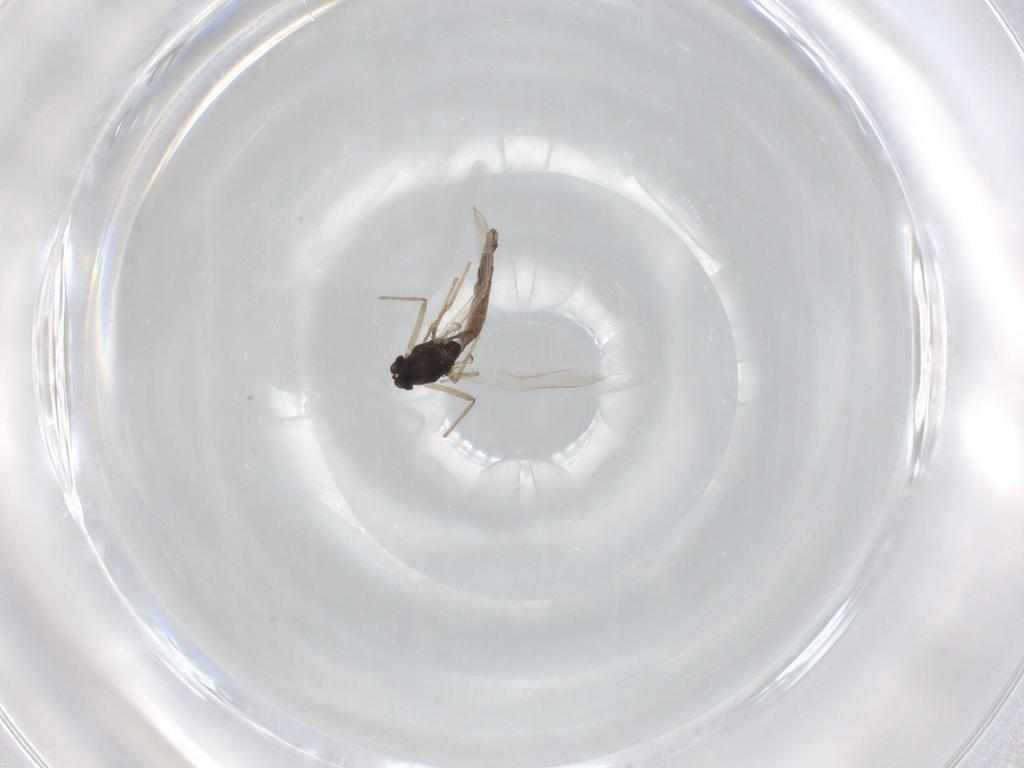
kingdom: Animalia
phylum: Arthropoda
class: Insecta
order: Diptera
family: Chironomidae
